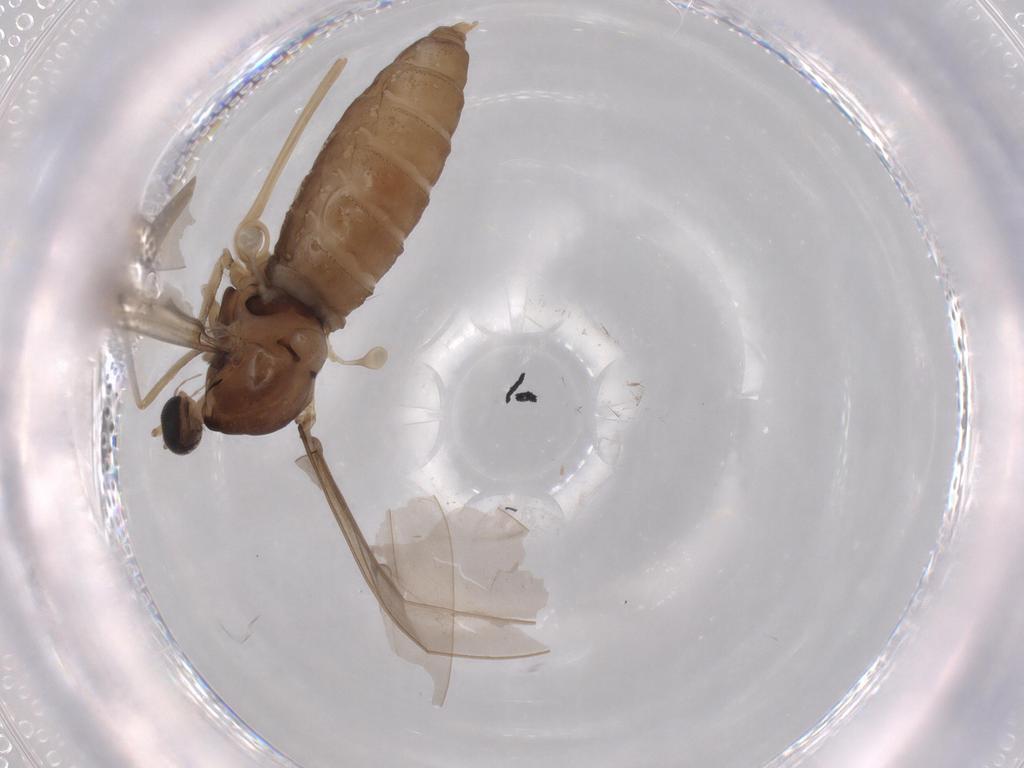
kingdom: Animalia
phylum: Arthropoda
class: Insecta
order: Diptera
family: Cecidomyiidae
